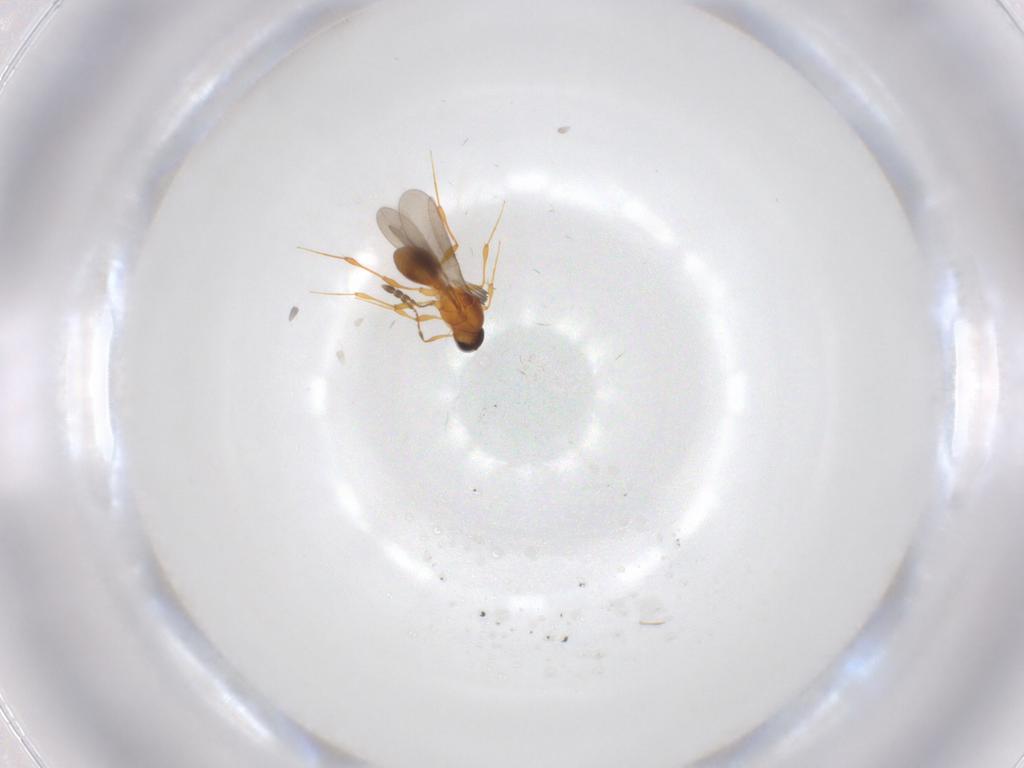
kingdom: Animalia
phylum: Arthropoda
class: Insecta
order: Hymenoptera
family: Platygastridae
